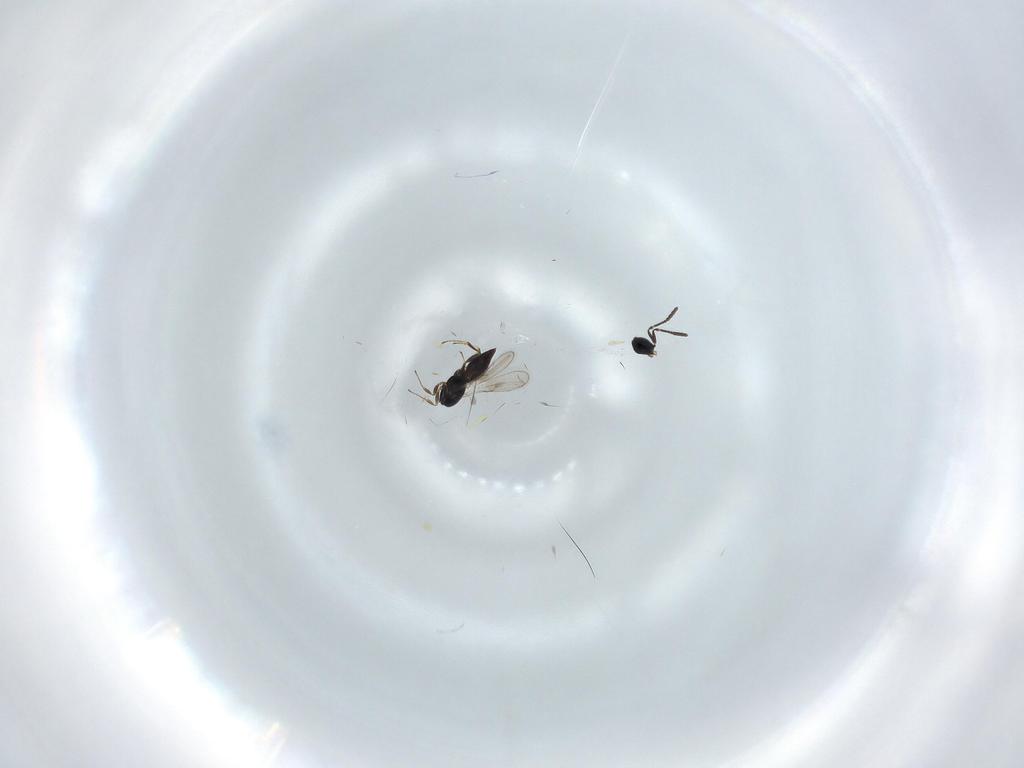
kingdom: Animalia
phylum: Arthropoda
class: Insecta
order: Hymenoptera
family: Scelionidae
